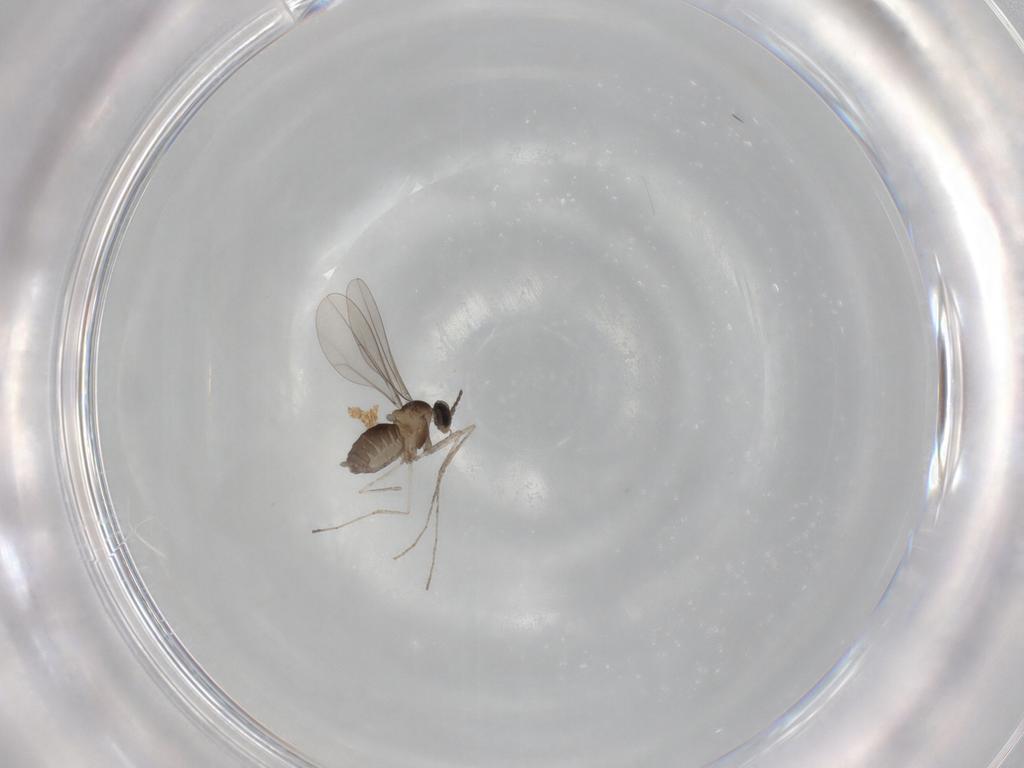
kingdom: Animalia
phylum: Arthropoda
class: Insecta
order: Diptera
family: Cecidomyiidae
